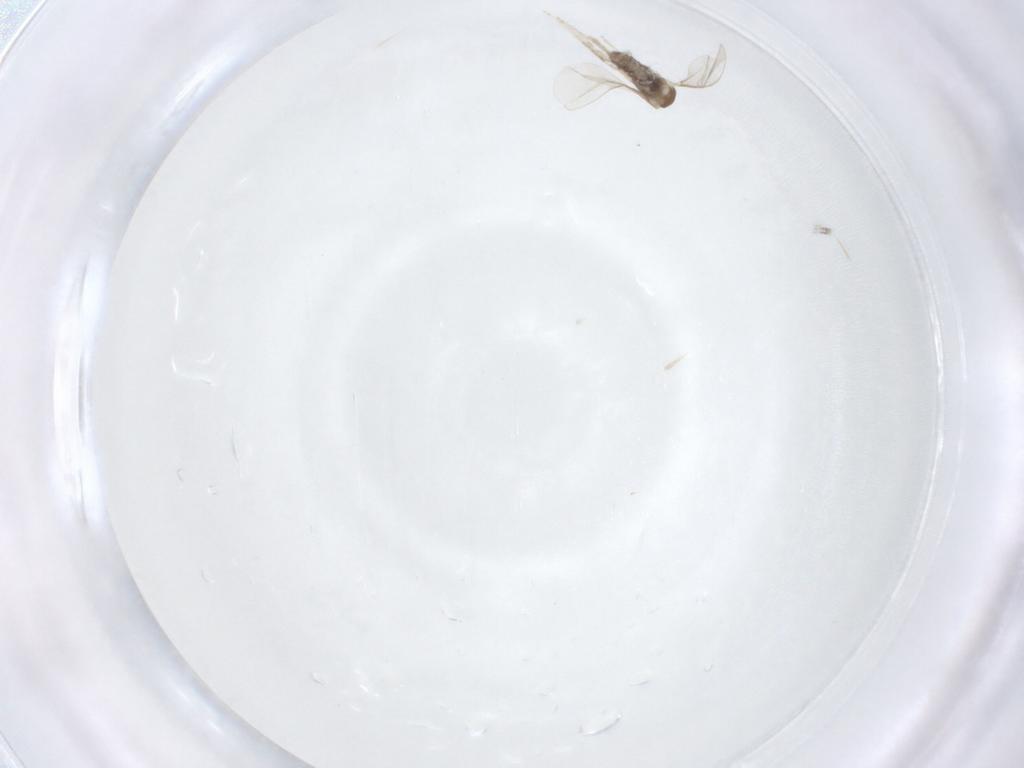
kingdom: Animalia
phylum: Arthropoda
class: Insecta
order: Diptera
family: Cecidomyiidae
